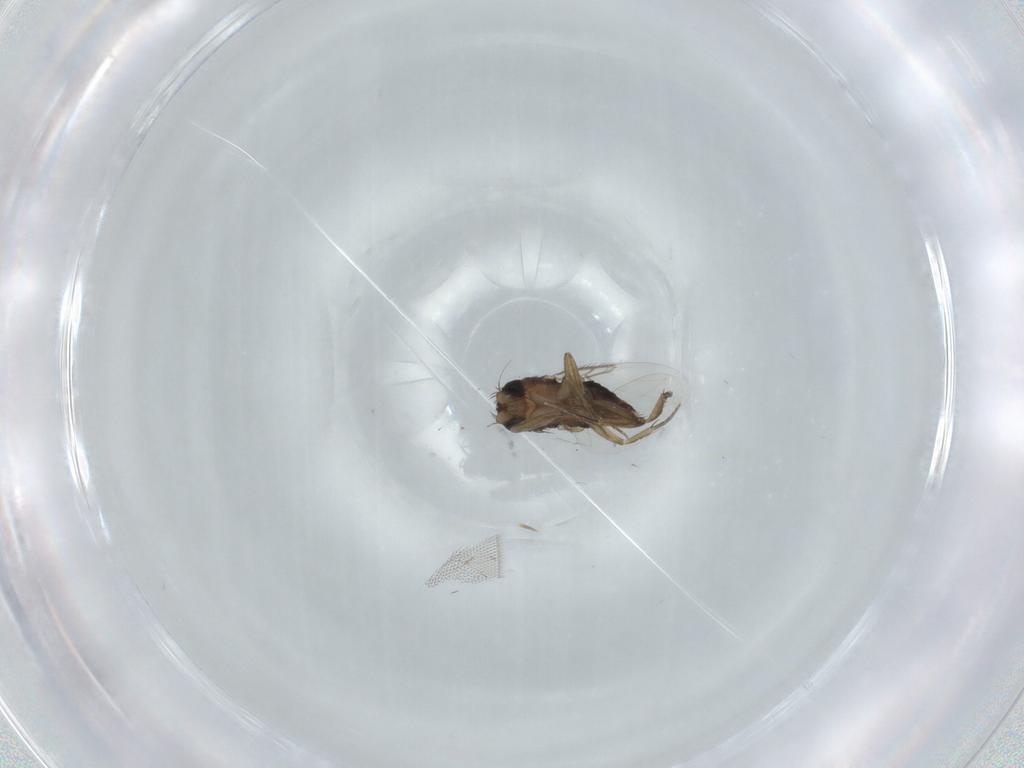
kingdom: Animalia
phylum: Arthropoda
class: Insecta
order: Diptera
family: Phoridae
